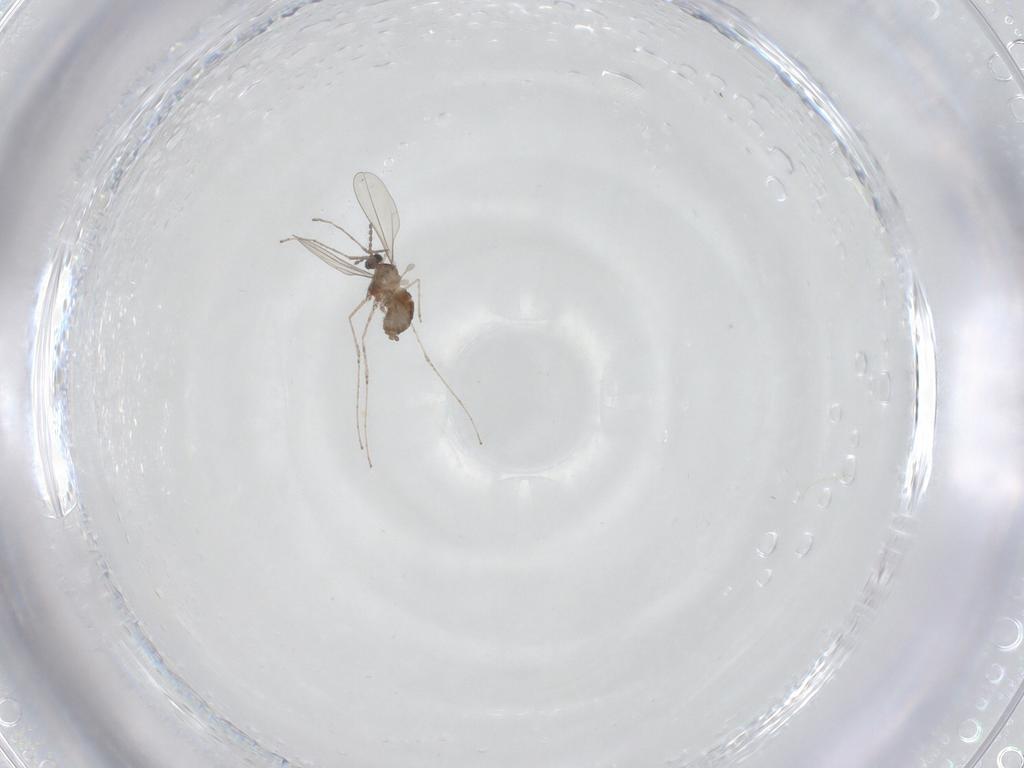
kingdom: Animalia
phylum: Arthropoda
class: Insecta
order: Diptera
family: Cecidomyiidae
